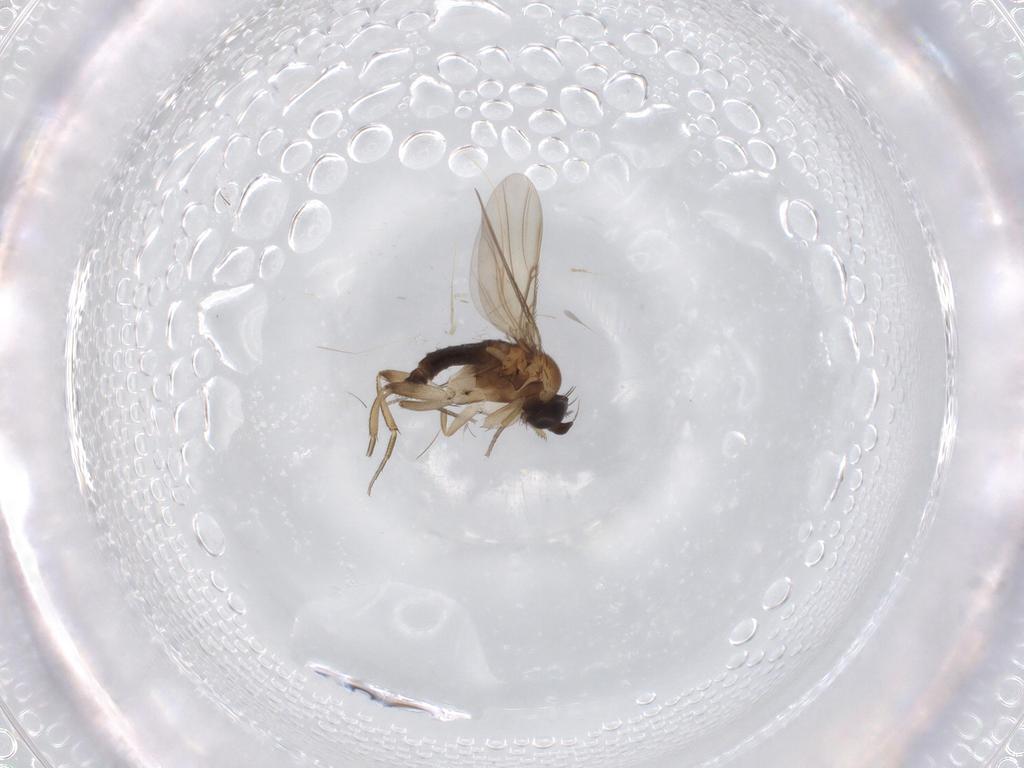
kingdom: Animalia
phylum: Arthropoda
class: Insecta
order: Diptera
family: Phoridae
